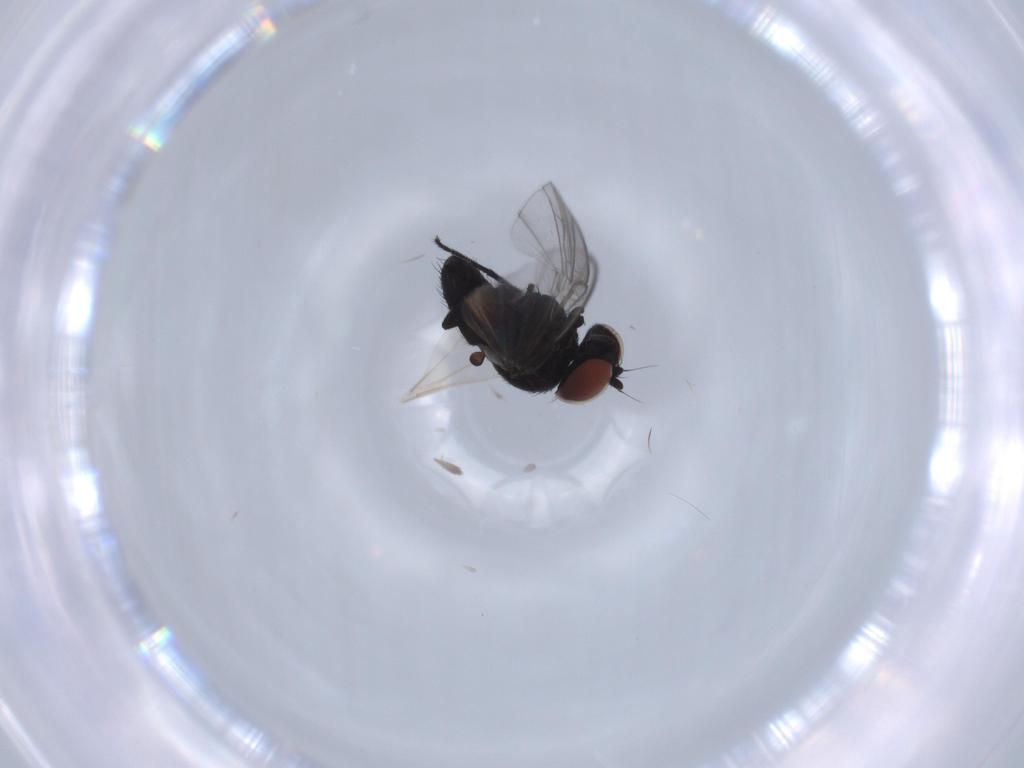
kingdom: Animalia
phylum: Arthropoda
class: Insecta
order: Diptera
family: Milichiidae
